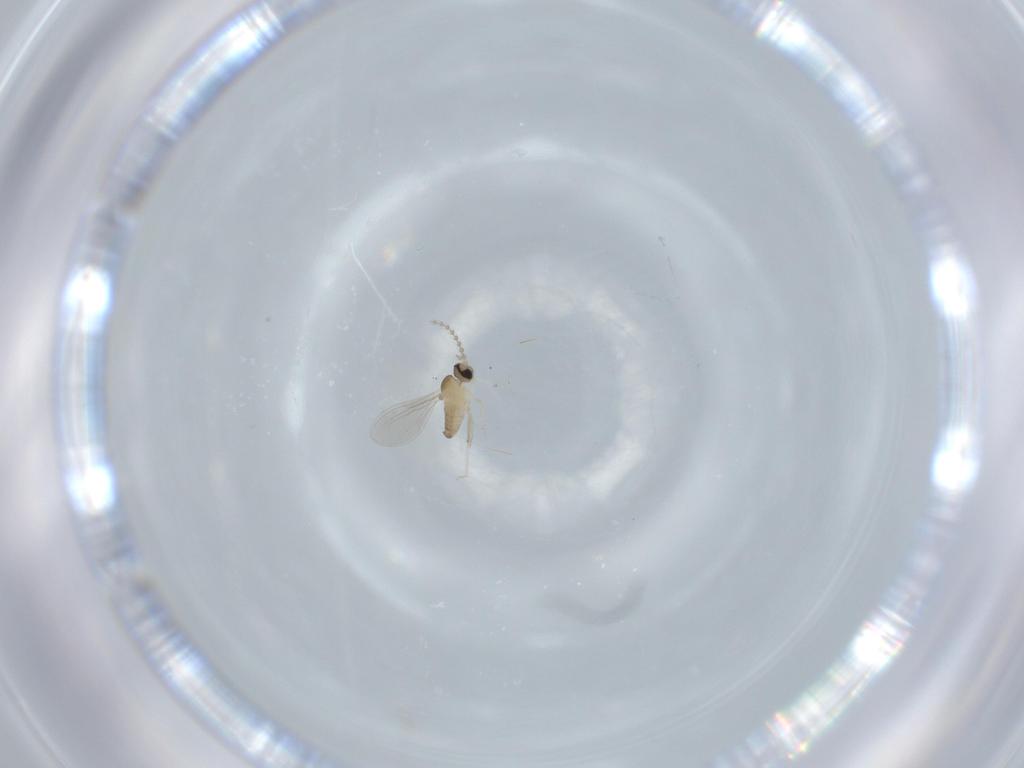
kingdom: Animalia
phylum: Arthropoda
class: Insecta
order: Diptera
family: Cecidomyiidae
